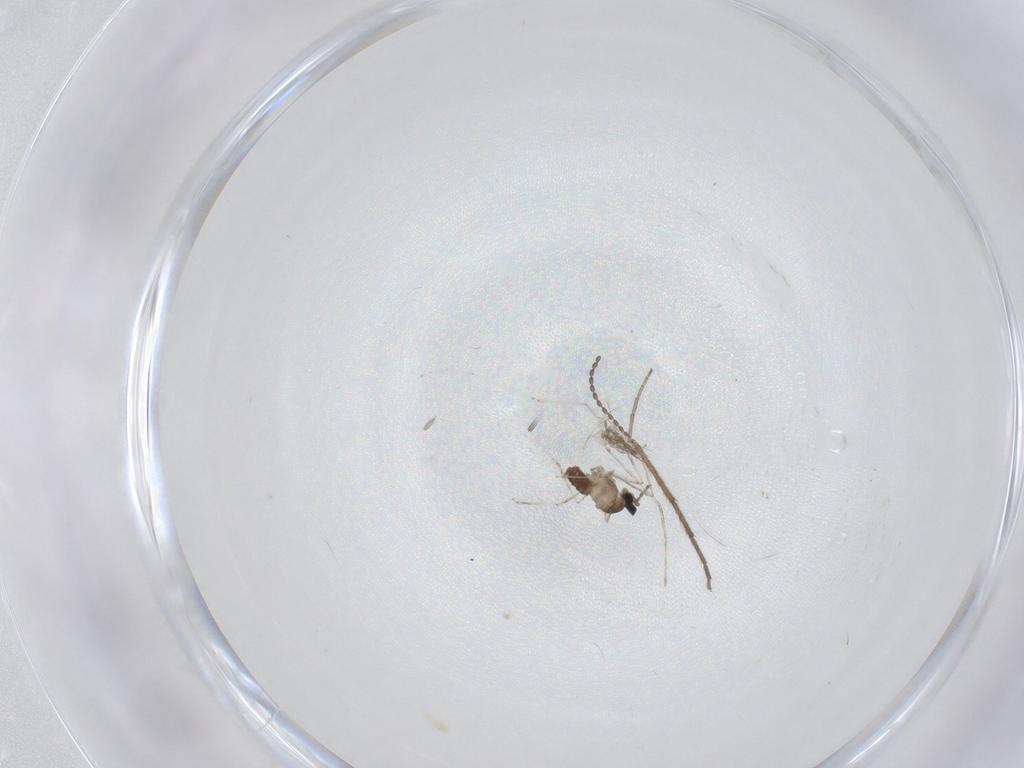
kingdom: Animalia
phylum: Arthropoda
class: Insecta
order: Diptera
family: Cecidomyiidae
